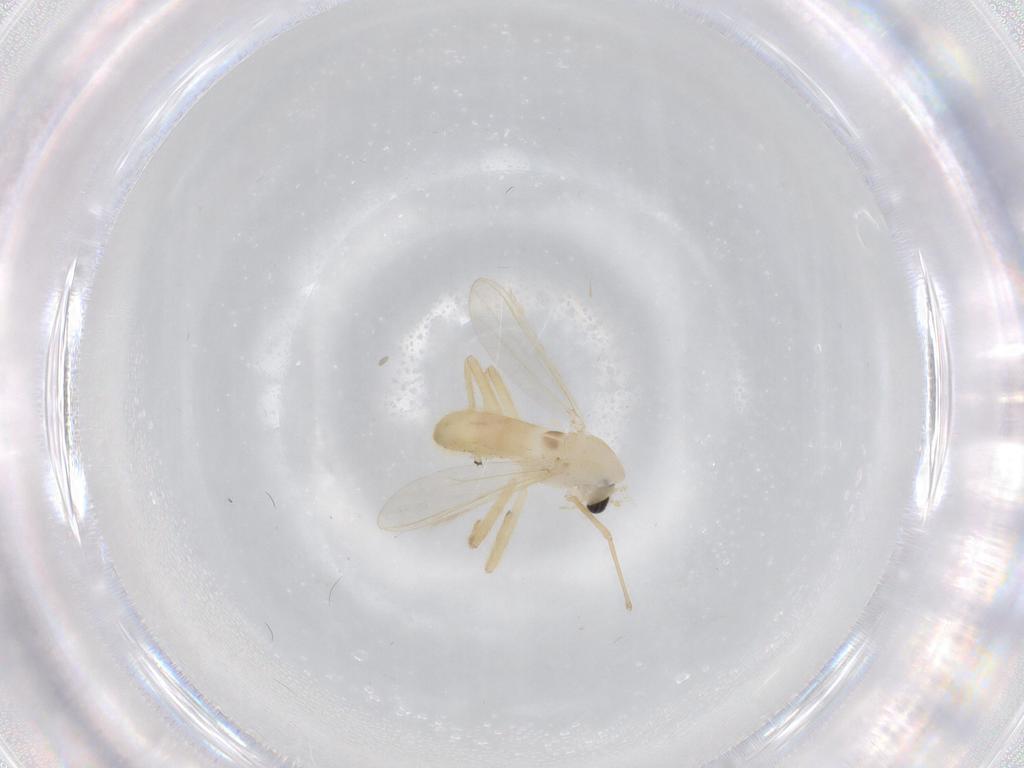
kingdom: Animalia
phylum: Arthropoda
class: Insecta
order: Diptera
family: Chironomidae
